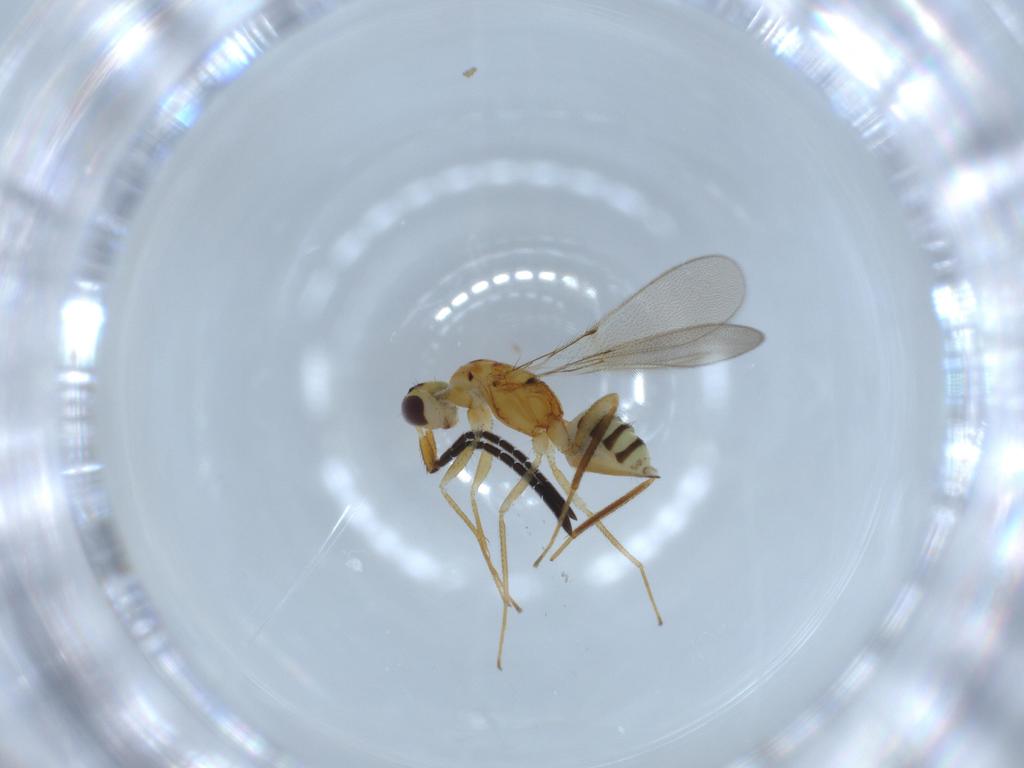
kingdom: Animalia
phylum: Arthropoda
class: Insecta
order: Hymenoptera
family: Mymaridae
